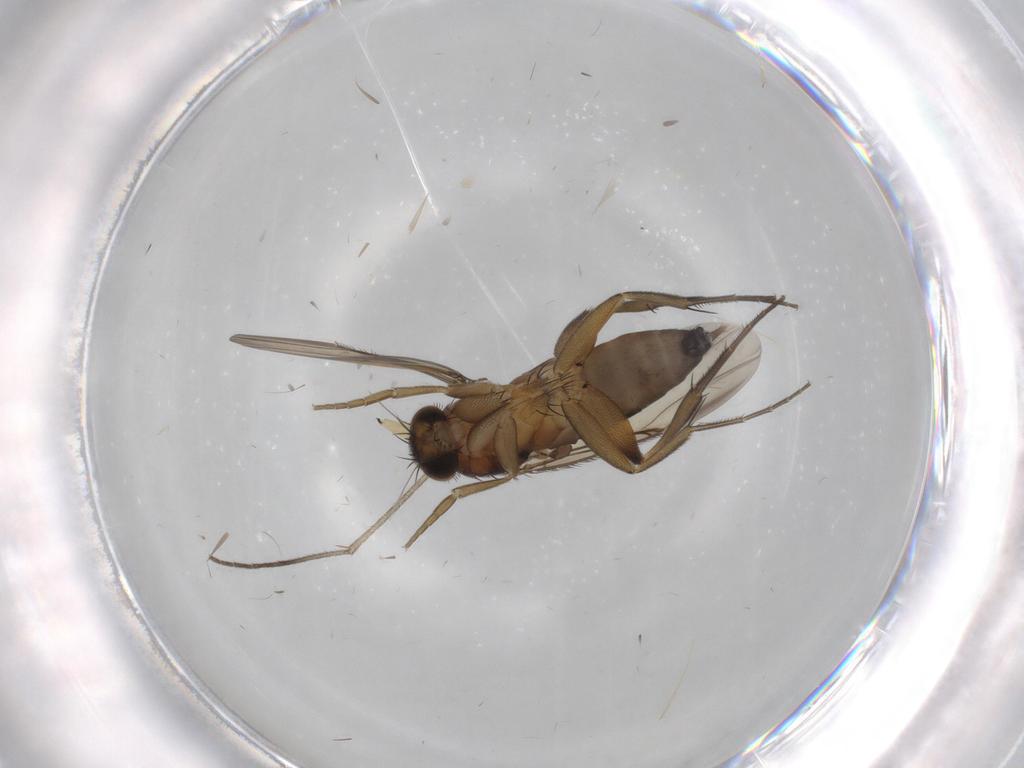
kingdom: Animalia
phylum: Arthropoda
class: Insecta
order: Diptera
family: Phoridae
